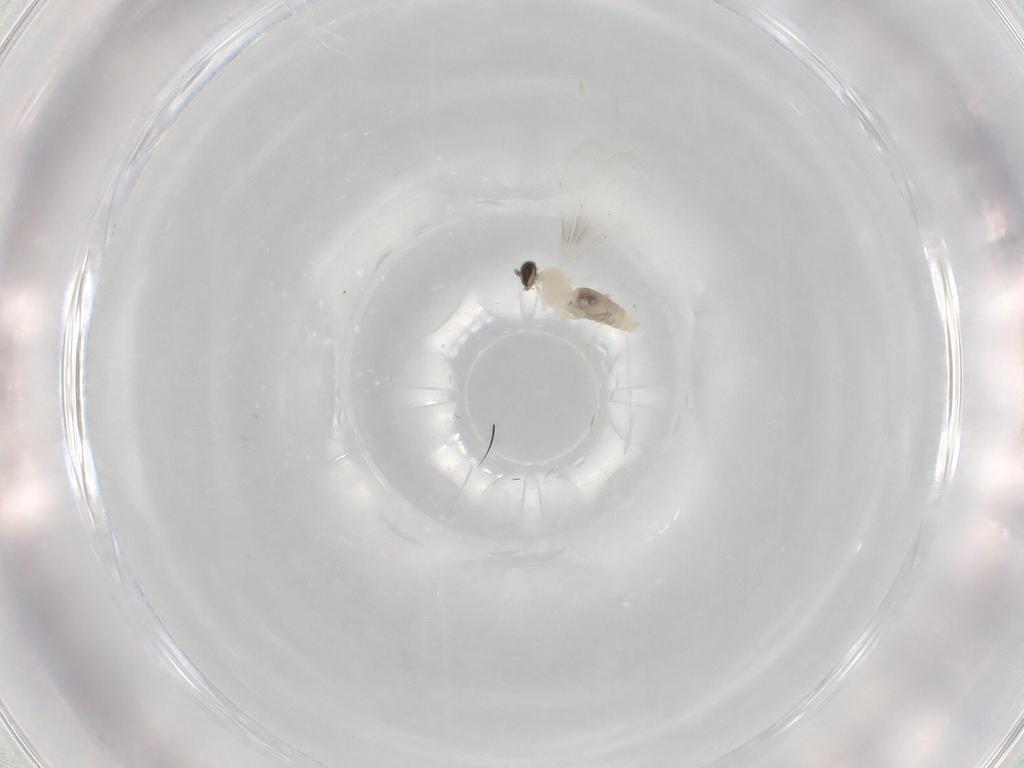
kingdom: Animalia
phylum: Arthropoda
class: Insecta
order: Diptera
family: Cecidomyiidae
